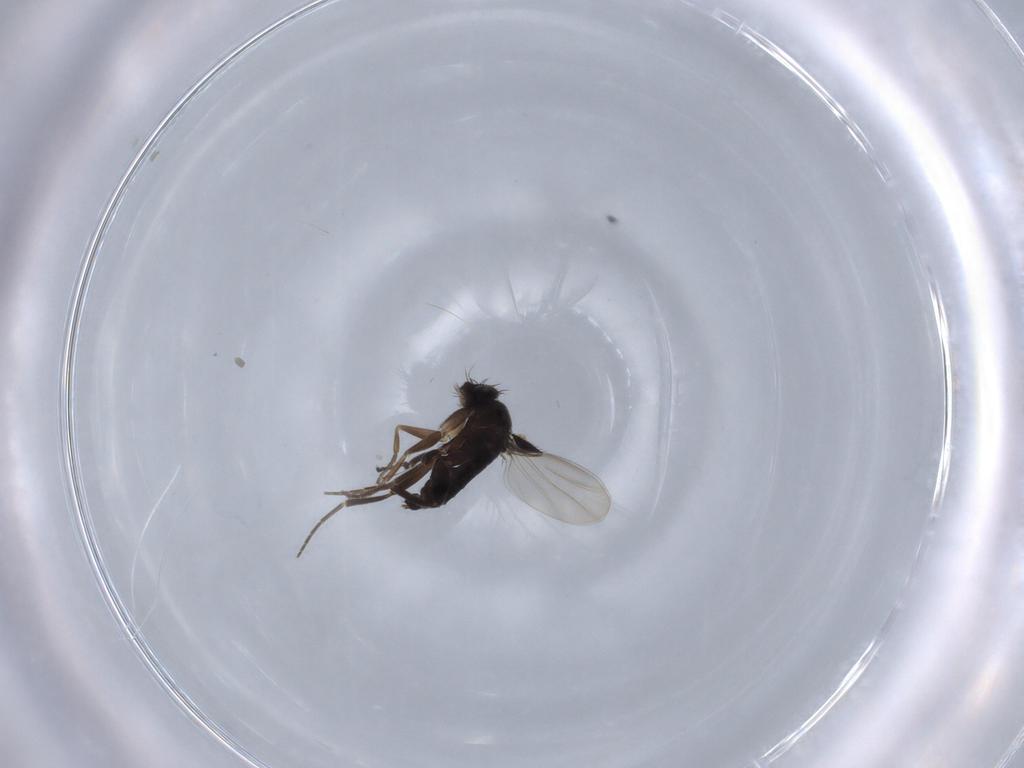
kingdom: Animalia
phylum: Arthropoda
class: Insecta
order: Diptera
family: Phoridae
